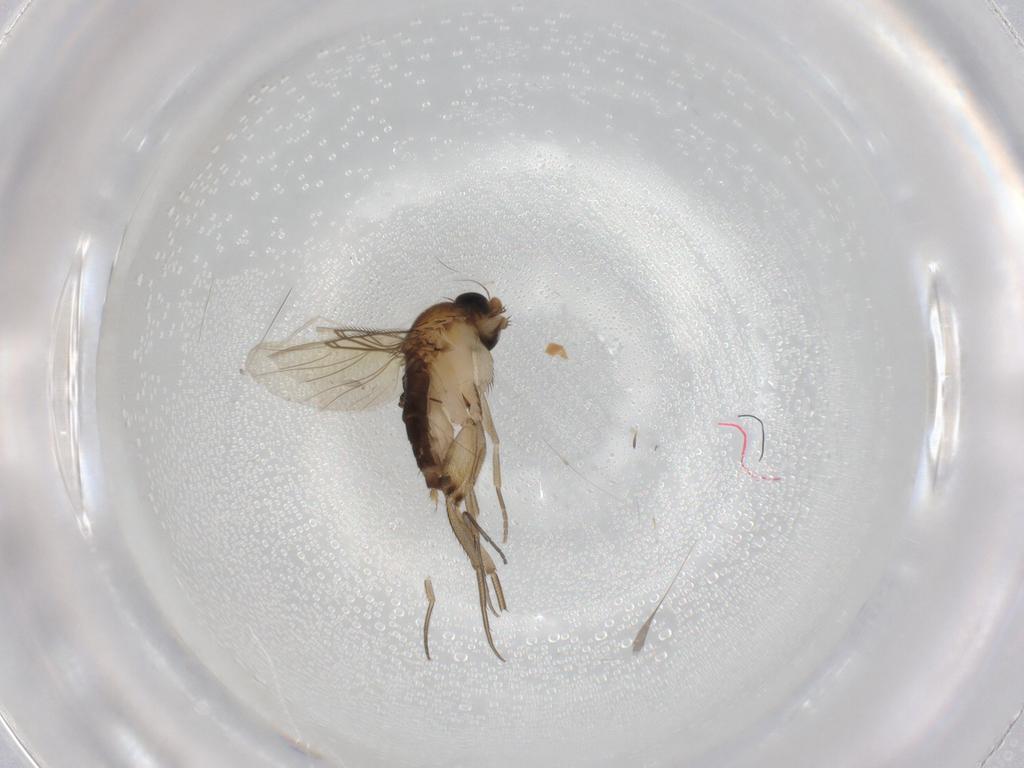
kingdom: Animalia
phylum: Arthropoda
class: Insecta
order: Diptera
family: Phoridae
